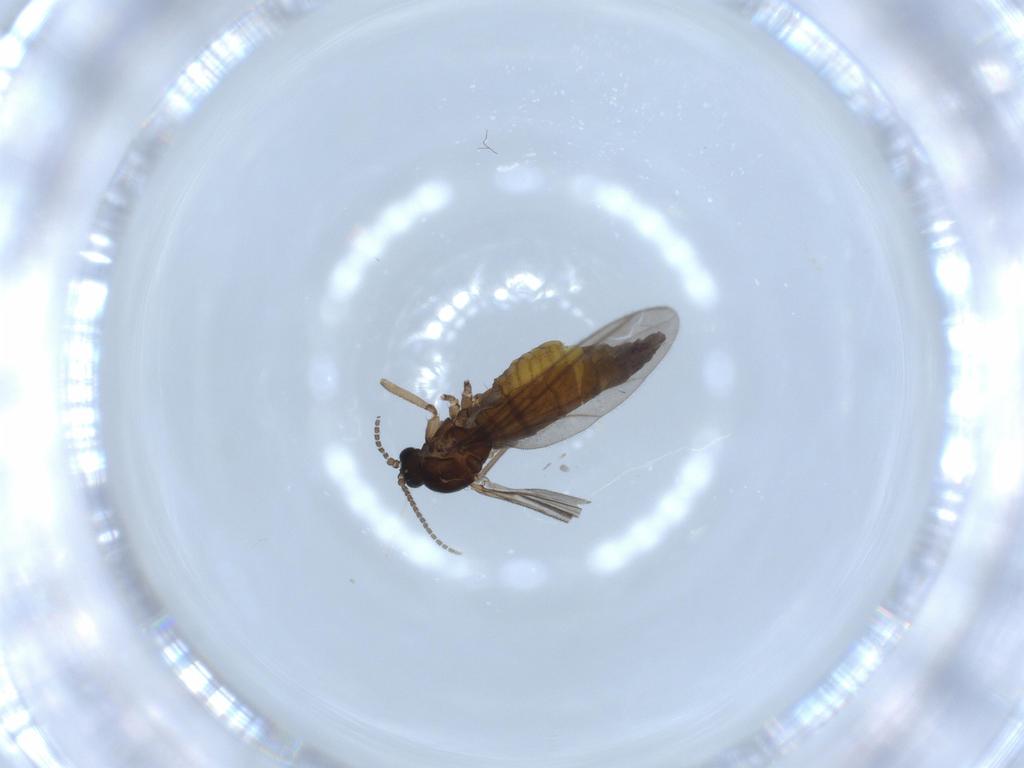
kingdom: Animalia
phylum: Arthropoda
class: Insecta
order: Diptera
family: Sciaridae
